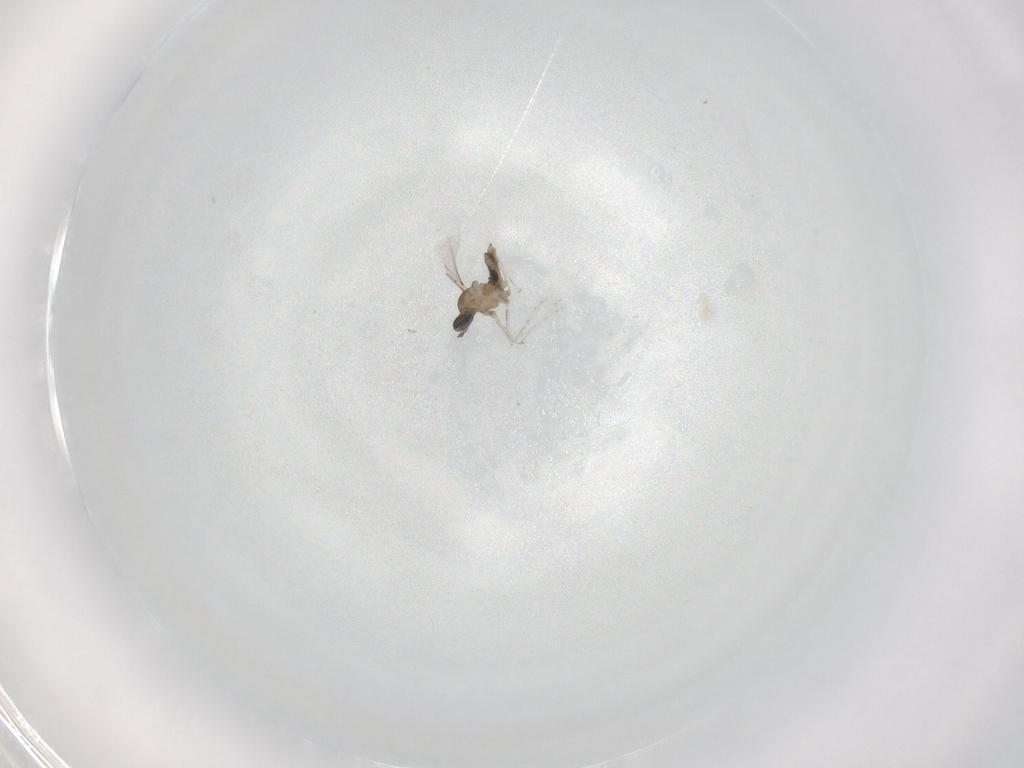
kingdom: Animalia
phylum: Arthropoda
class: Insecta
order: Diptera
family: Cecidomyiidae
